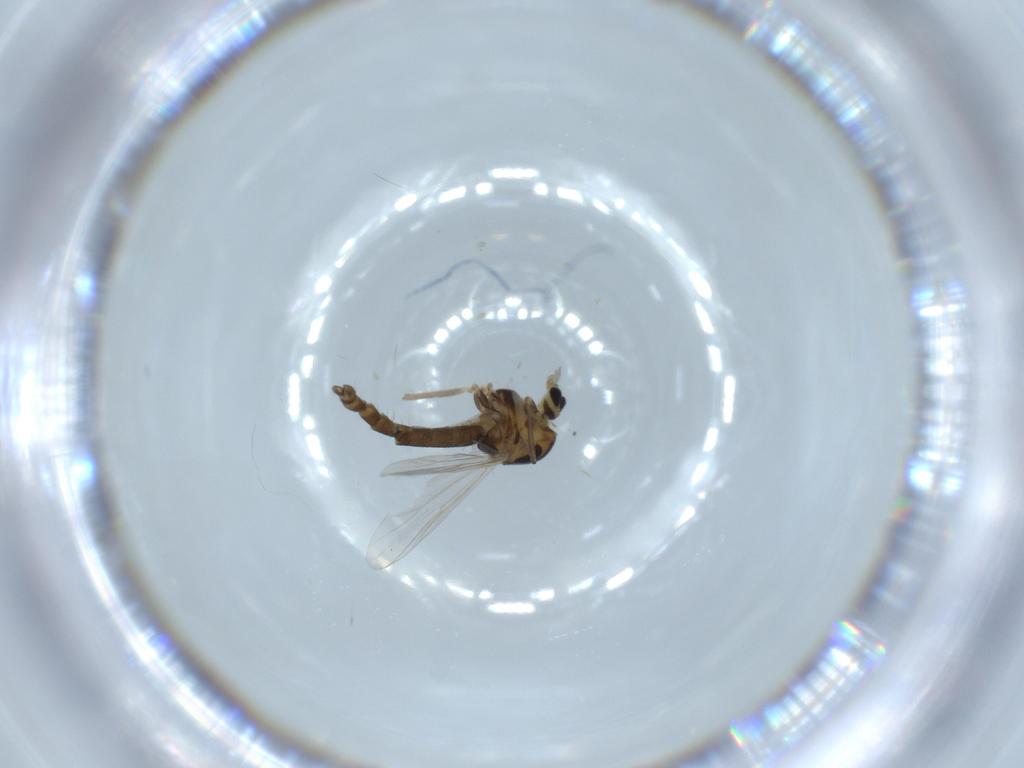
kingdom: Animalia
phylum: Arthropoda
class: Insecta
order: Diptera
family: Chironomidae
